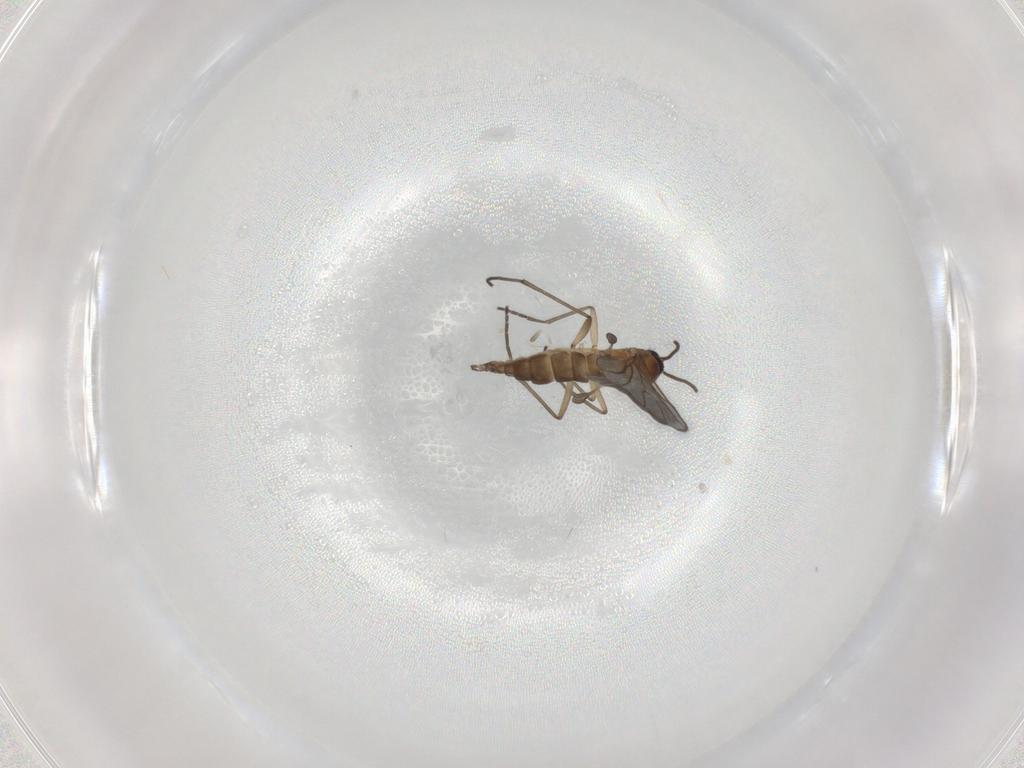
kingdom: Animalia
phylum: Arthropoda
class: Insecta
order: Diptera
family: Sciaridae
